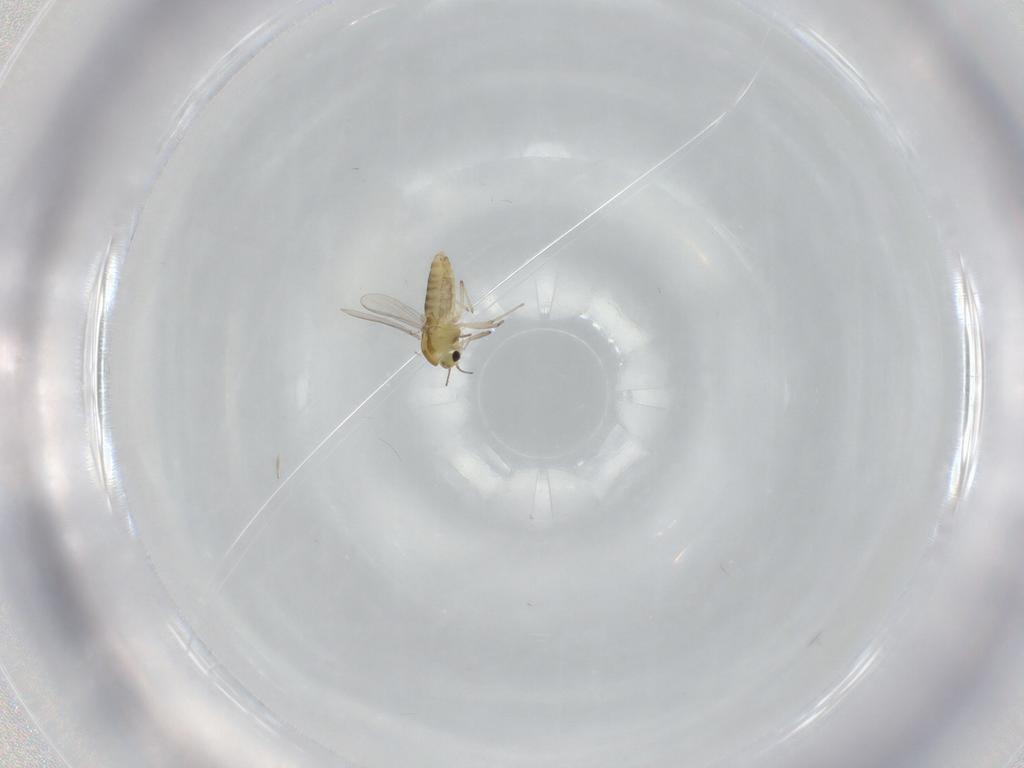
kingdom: Animalia
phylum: Arthropoda
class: Insecta
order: Diptera
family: Chironomidae
